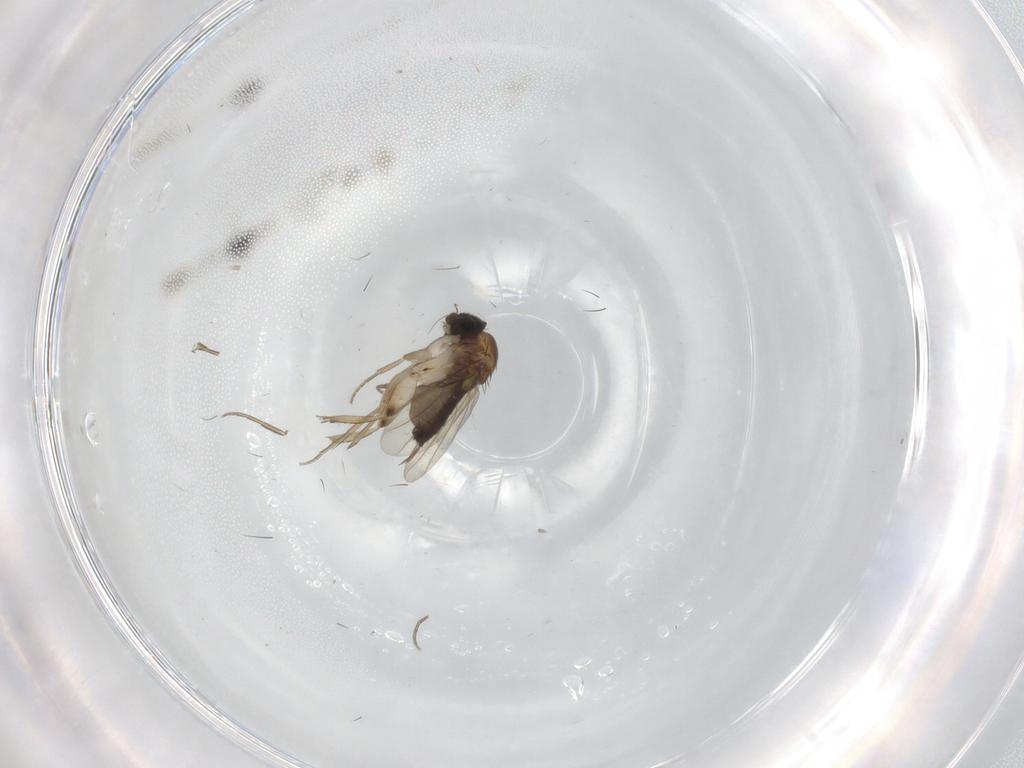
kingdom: Animalia
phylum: Arthropoda
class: Insecta
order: Diptera
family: Phoridae
